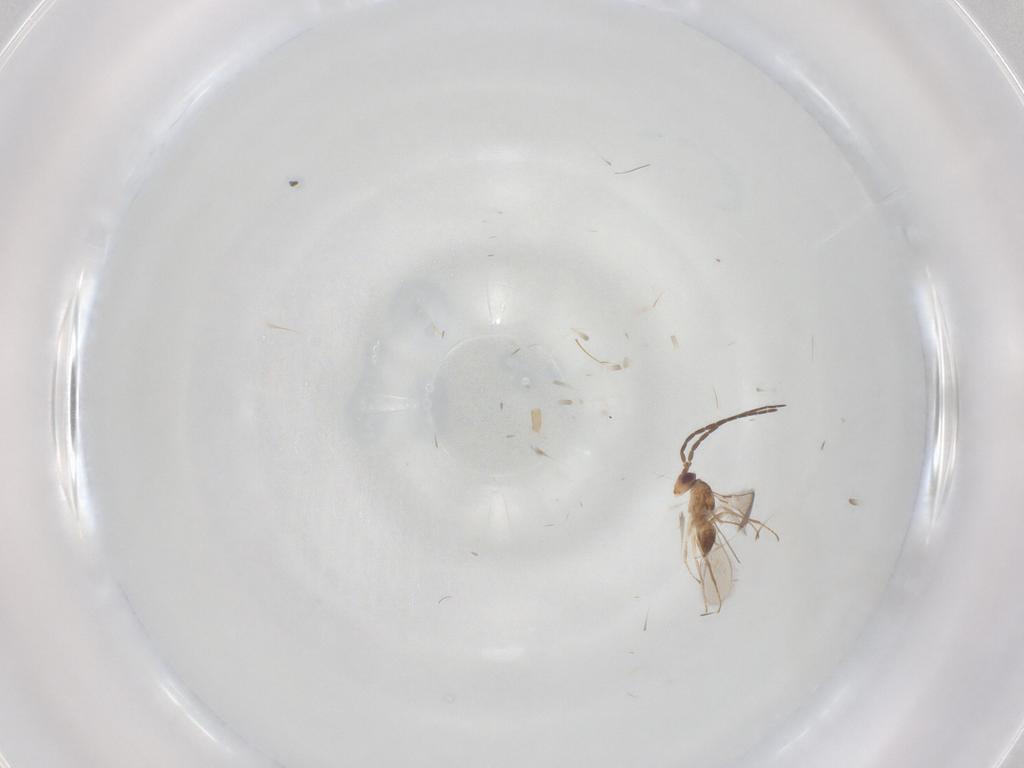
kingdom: Animalia
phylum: Arthropoda
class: Insecta
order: Hymenoptera
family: Mymaridae
